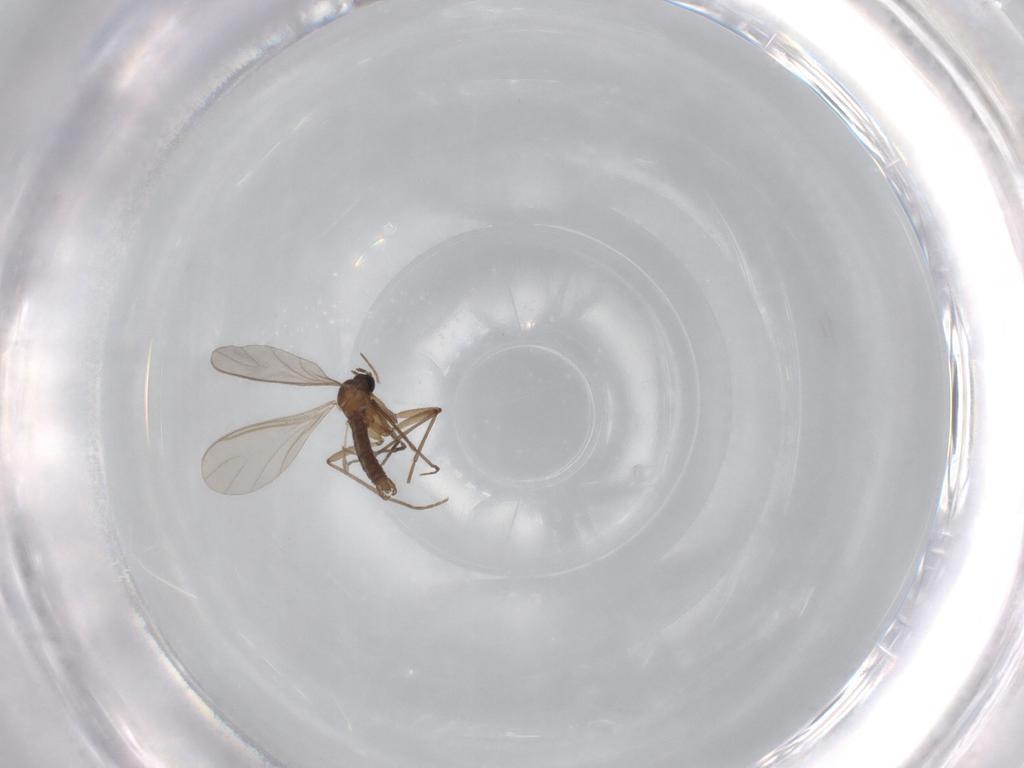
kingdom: Animalia
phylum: Arthropoda
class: Insecta
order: Diptera
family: Sciaridae
